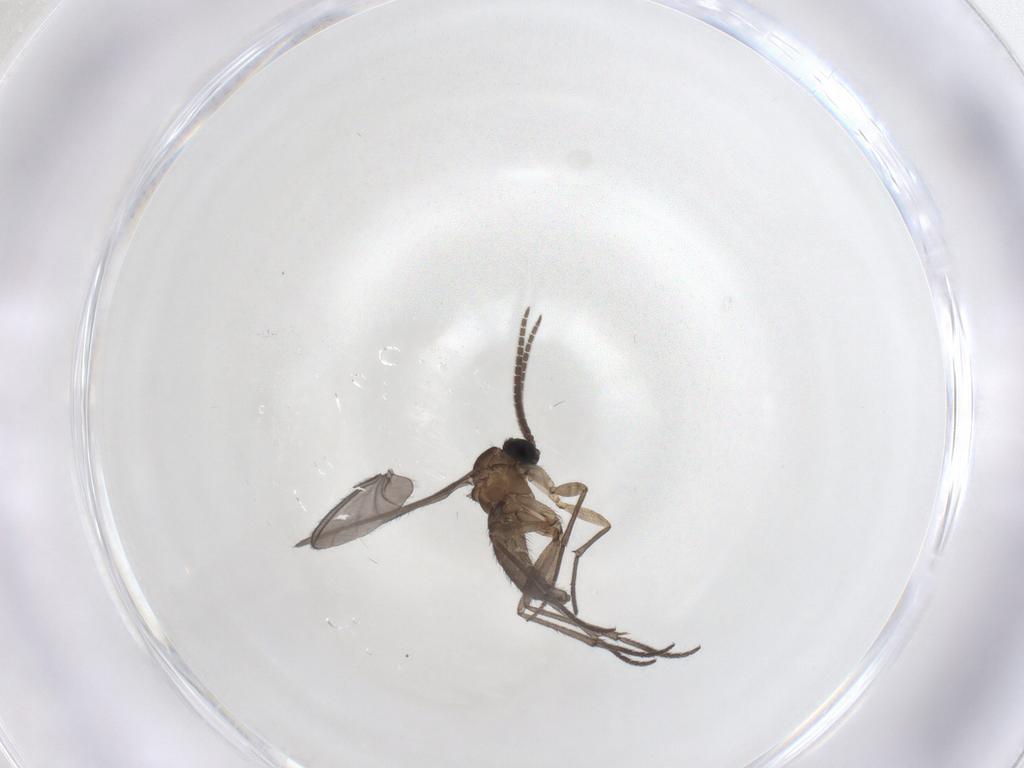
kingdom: Animalia
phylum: Arthropoda
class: Insecta
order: Diptera
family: Sciaridae
